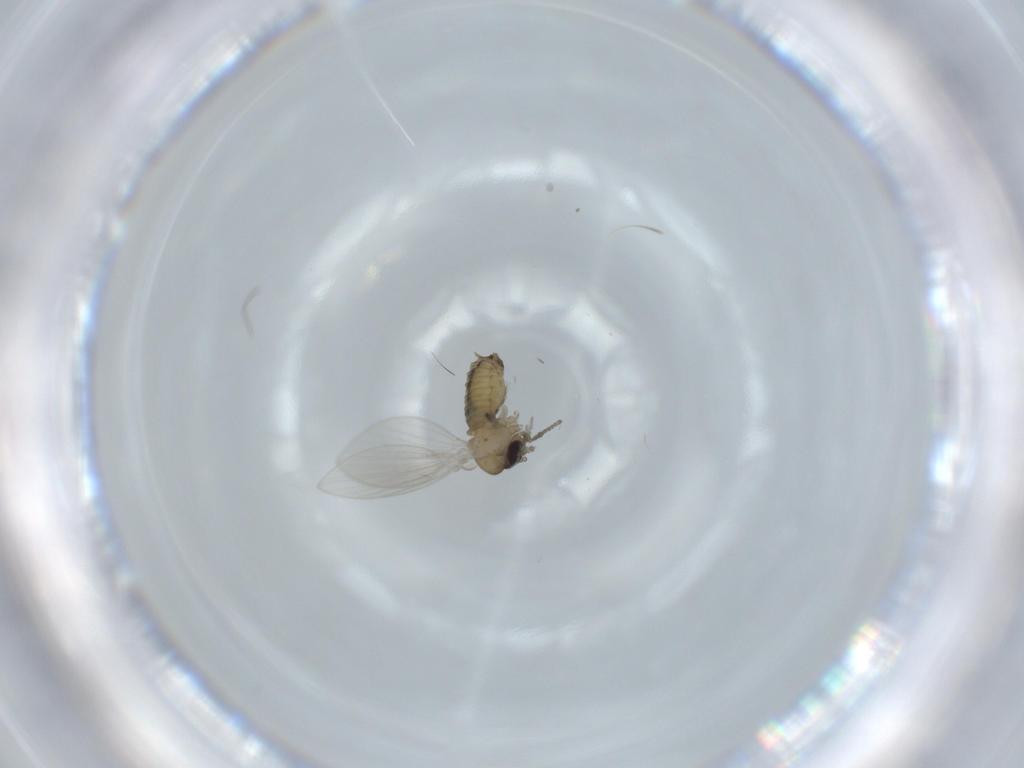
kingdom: Animalia
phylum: Arthropoda
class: Insecta
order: Diptera
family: Psychodidae
